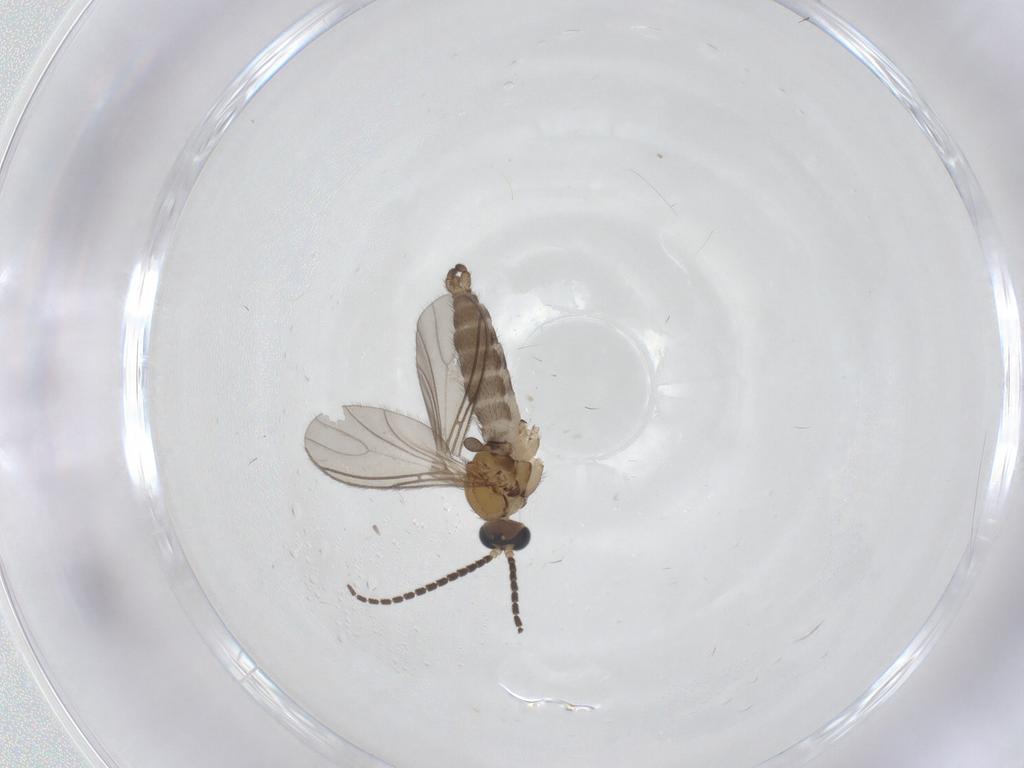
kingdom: Animalia
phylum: Arthropoda
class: Insecta
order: Diptera
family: Sciaridae
